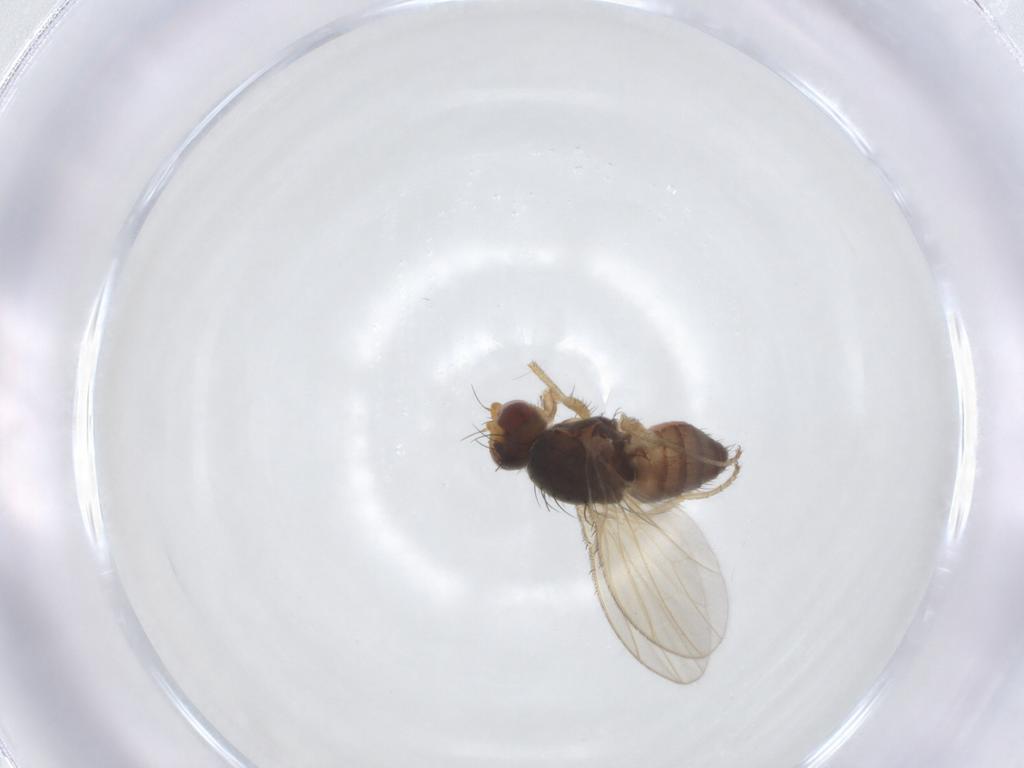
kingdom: Animalia
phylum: Arthropoda
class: Insecta
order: Diptera
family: Heleomyzidae
